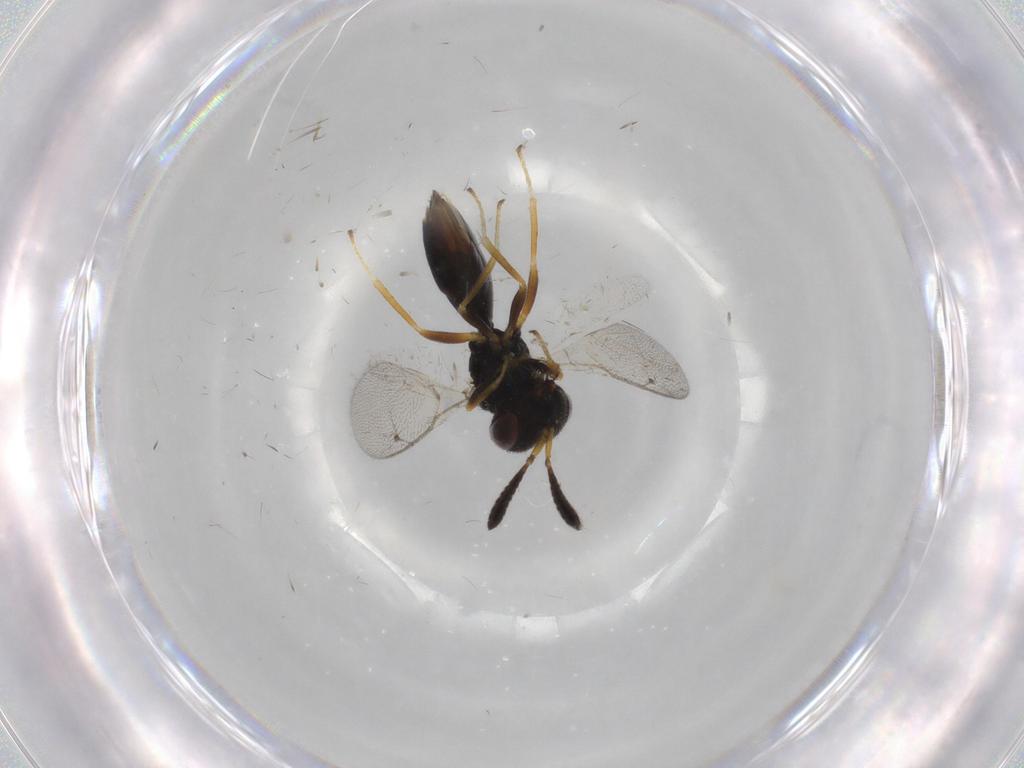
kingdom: Animalia
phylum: Arthropoda
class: Insecta
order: Hymenoptera
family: Agaonidae
